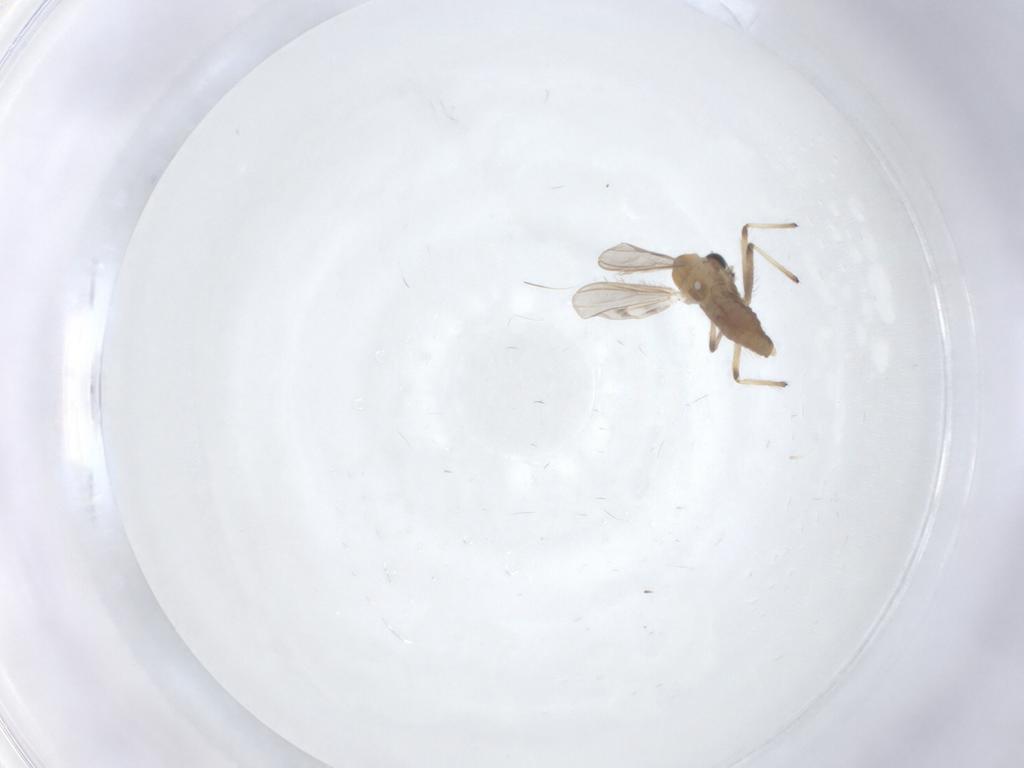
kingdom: Animalia
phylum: Arthropoda
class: Insecta
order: Diptera
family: Chironomidae
